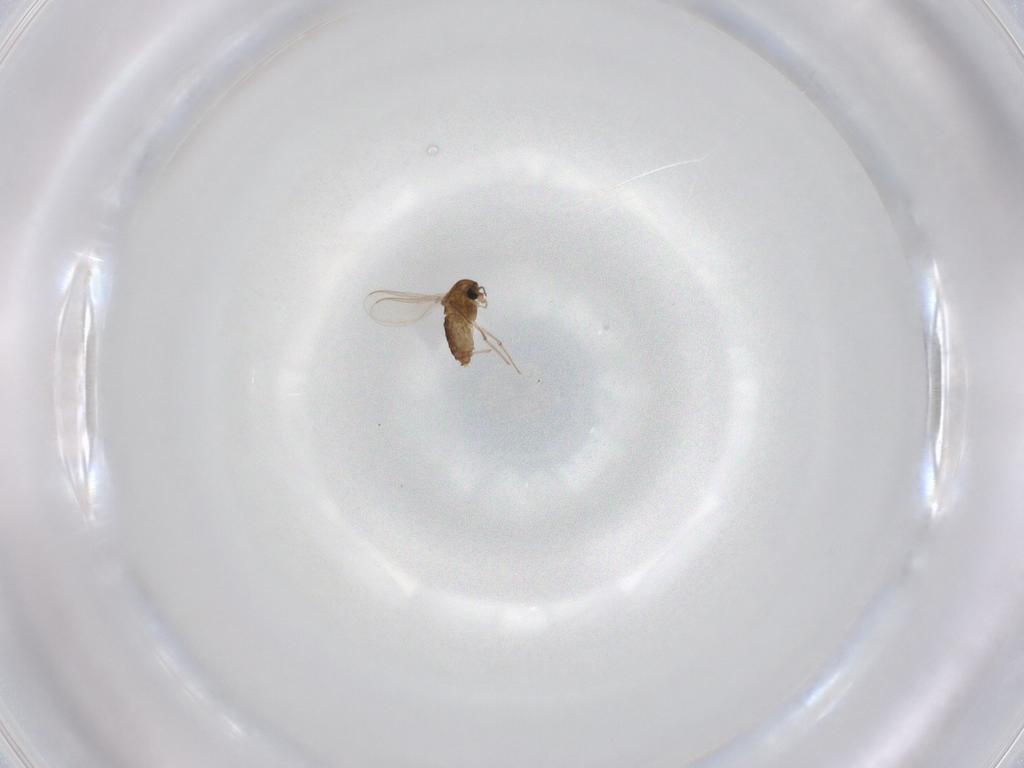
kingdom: Animalia
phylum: Arthropoda
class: Insecta
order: Diptera
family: Chironomidae
